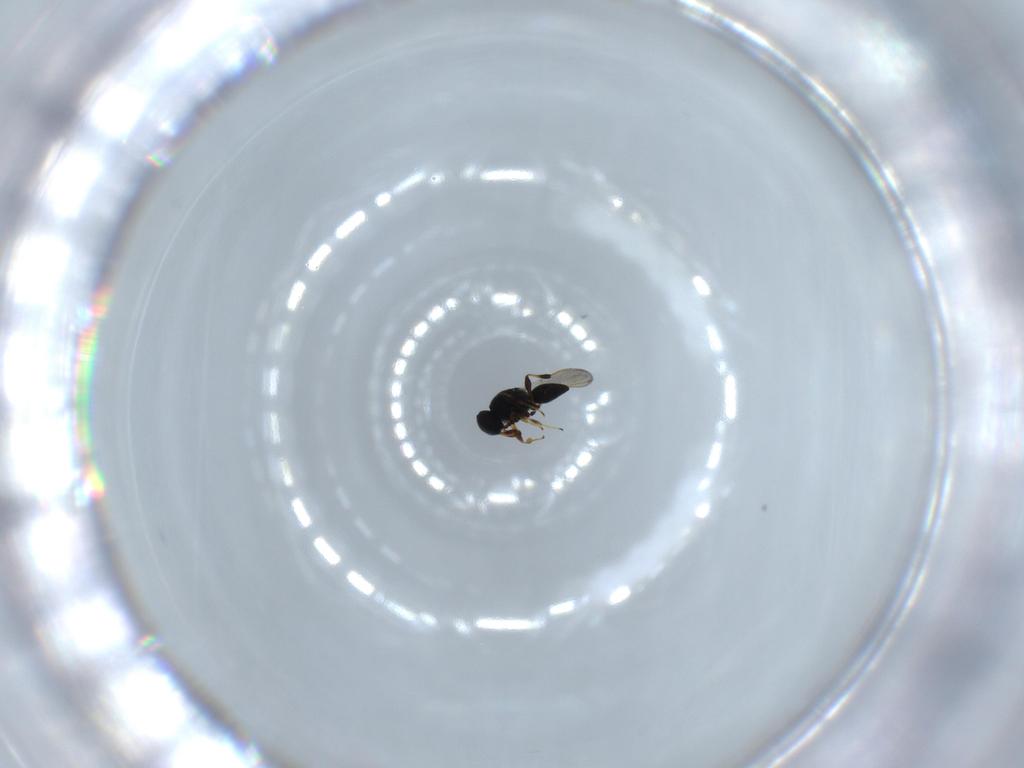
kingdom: Animalia
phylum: Arthropoda
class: Insecta
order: Hymenoptera
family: Platygastridae
